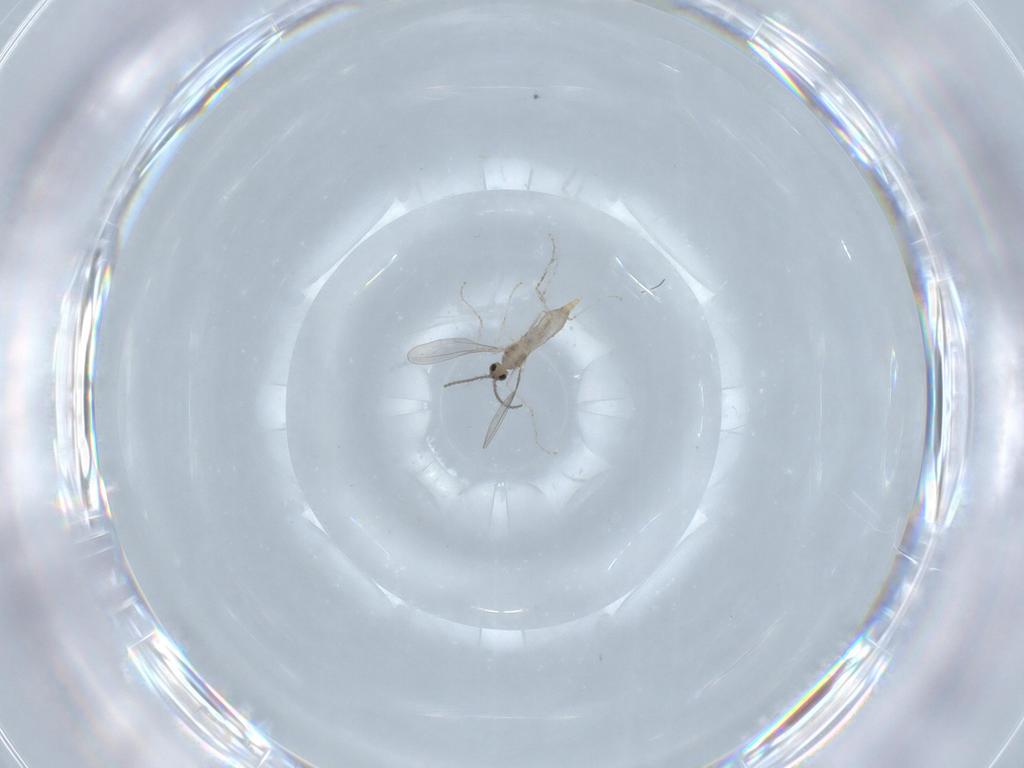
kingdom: Animalia
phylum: Arthropoda
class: Insecta
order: Diptera
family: Cecidomyiidae
